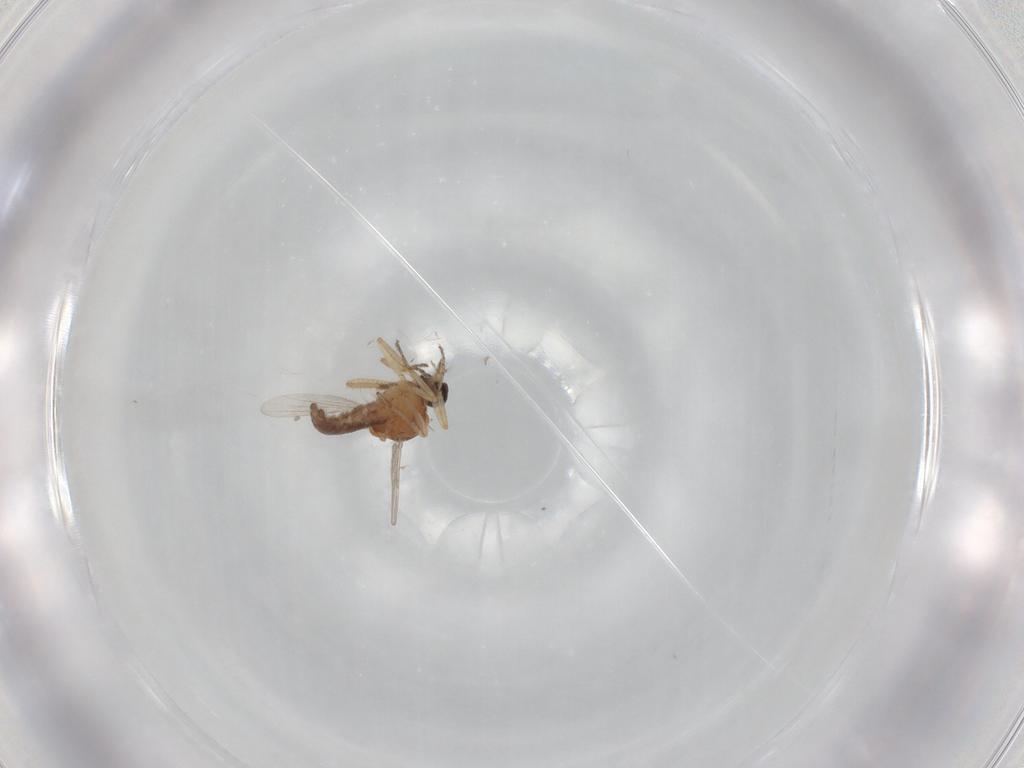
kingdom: Animalia
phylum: Arthropoda
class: Insecta
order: Diptera
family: Ceratopogonidae
